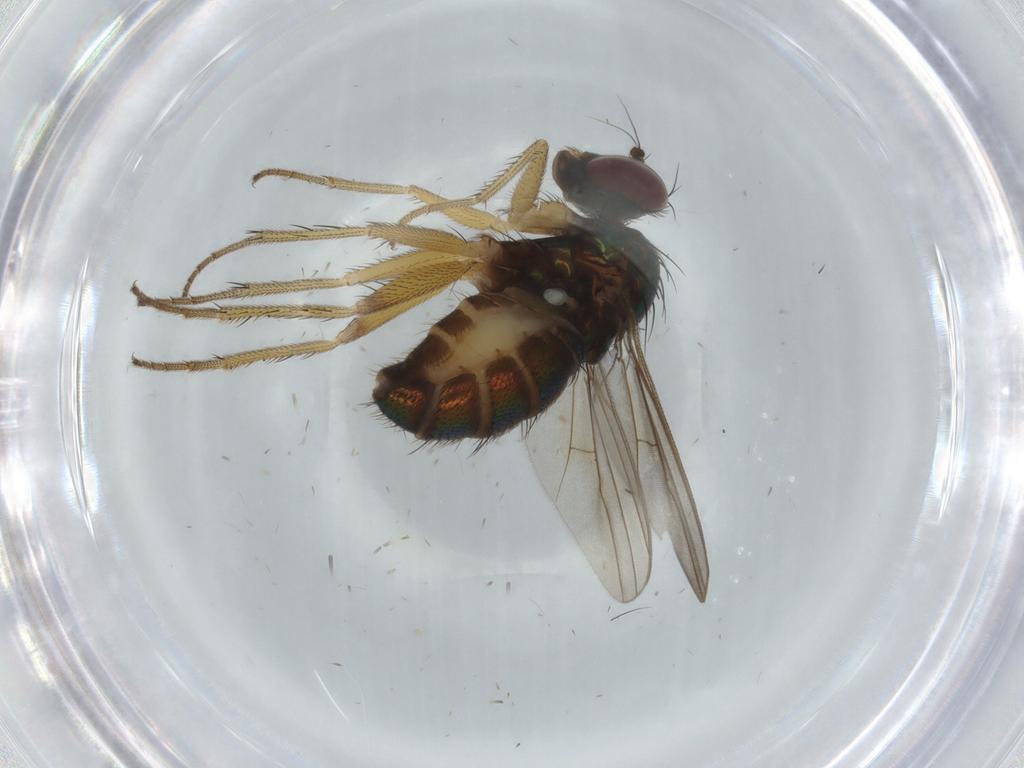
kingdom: Animalia
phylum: Arthropoda
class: Insecta
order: Diptera
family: Dolichopodidae
